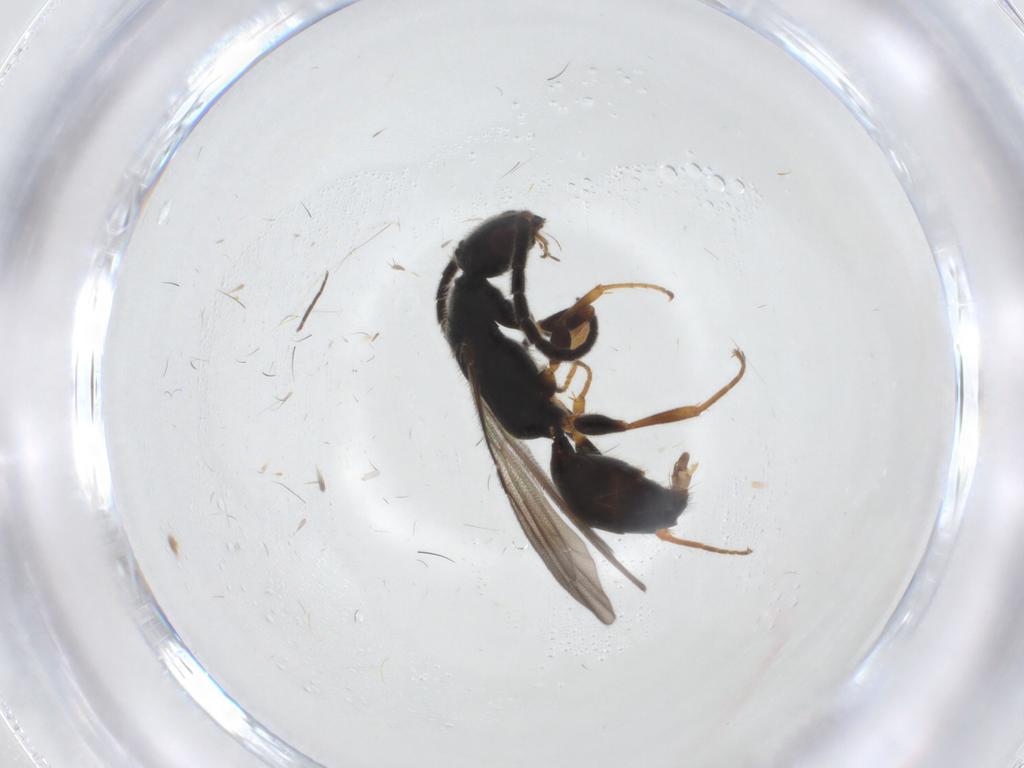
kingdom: Animalia
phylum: Arthropoda
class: Insecta
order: Hymenoptera
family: Bethylidae
